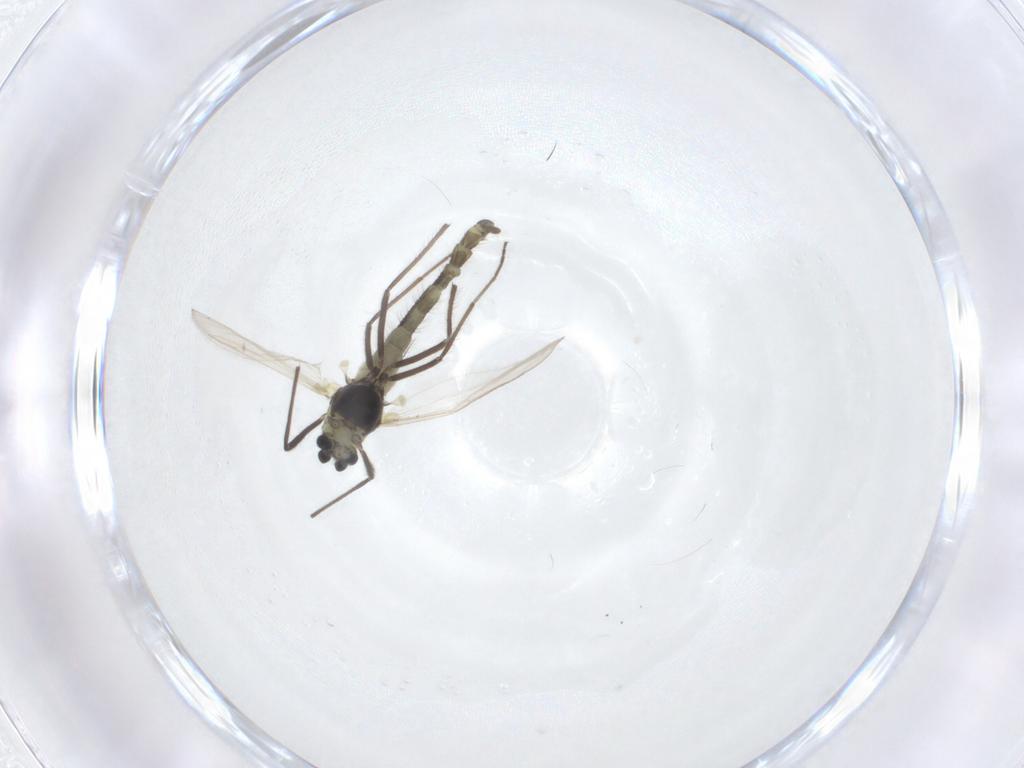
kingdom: Animalia
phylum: Arthropoda
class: Insecta
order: Diptera
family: Chironomidae
